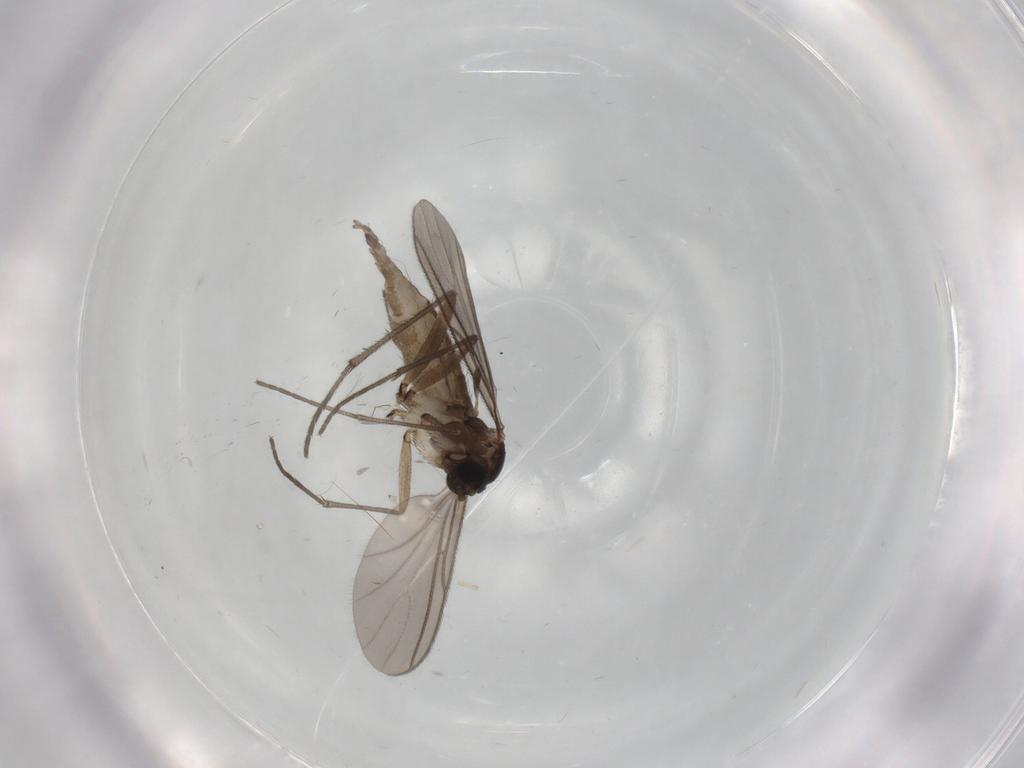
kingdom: Animalia
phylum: Arthropoda
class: Insecta
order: Diptera
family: Sciaridae
